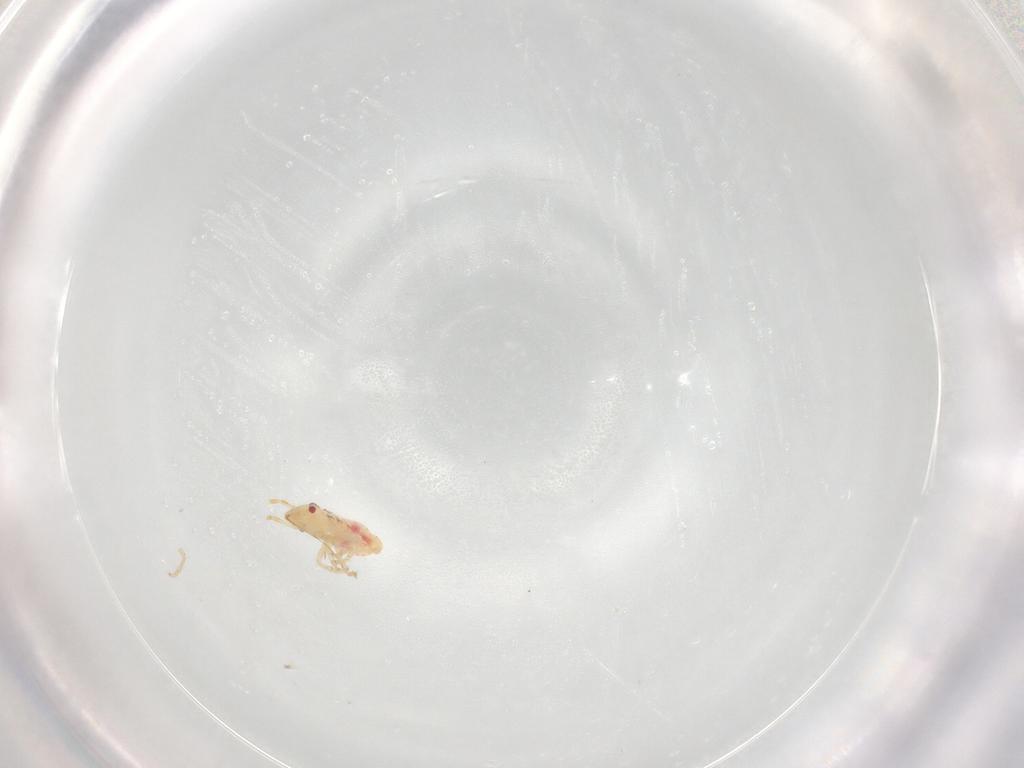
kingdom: Animalia
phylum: Arthropoda
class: Insecta
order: Hemiptera
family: Lygaeidae
